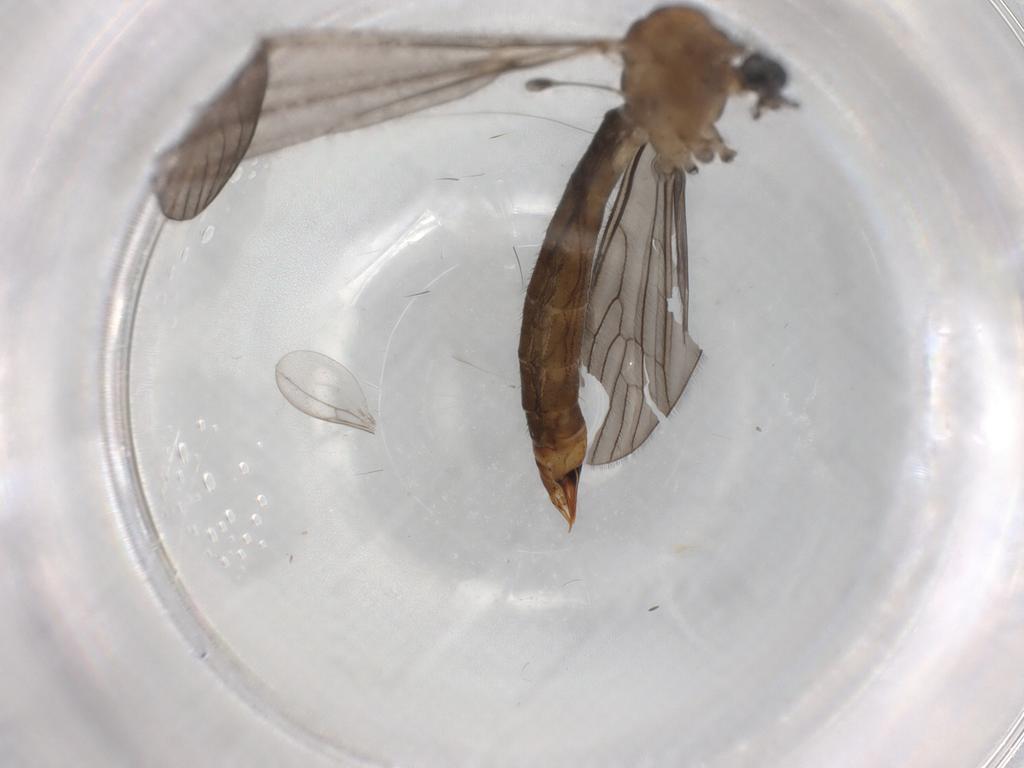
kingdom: Animalia
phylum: Arthropoda
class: Insecta
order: Diptera
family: Limoniidae
